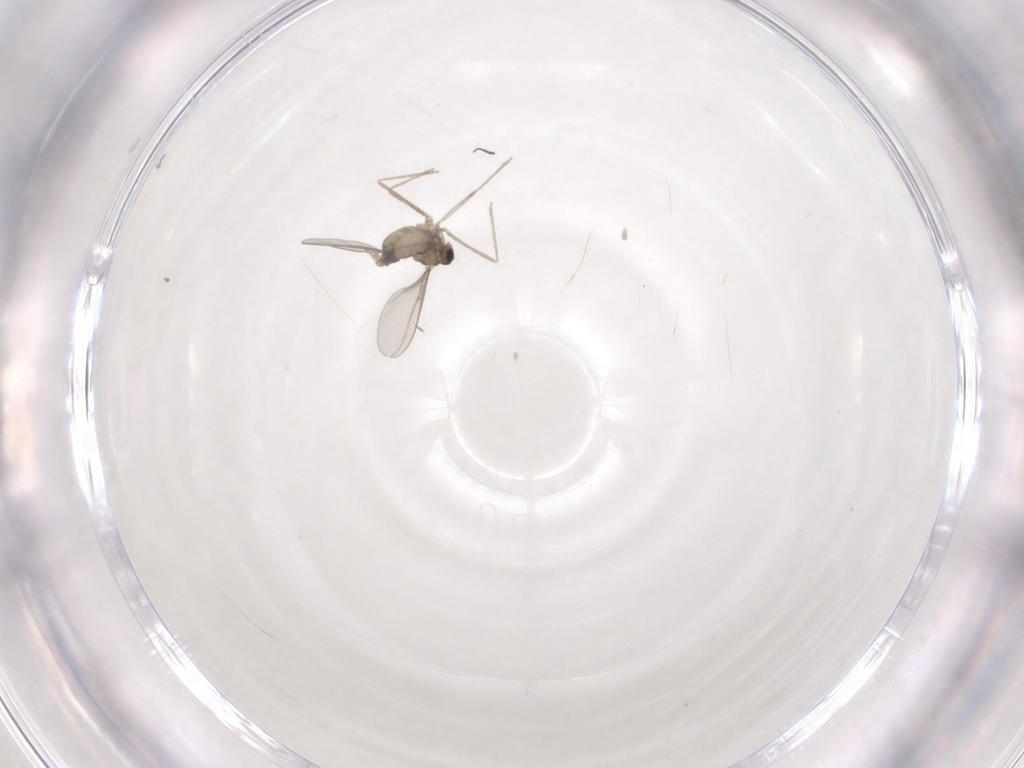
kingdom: Animalia
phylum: Arthropoda
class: Insecta
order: Diptera
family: Cecidomyiidae
